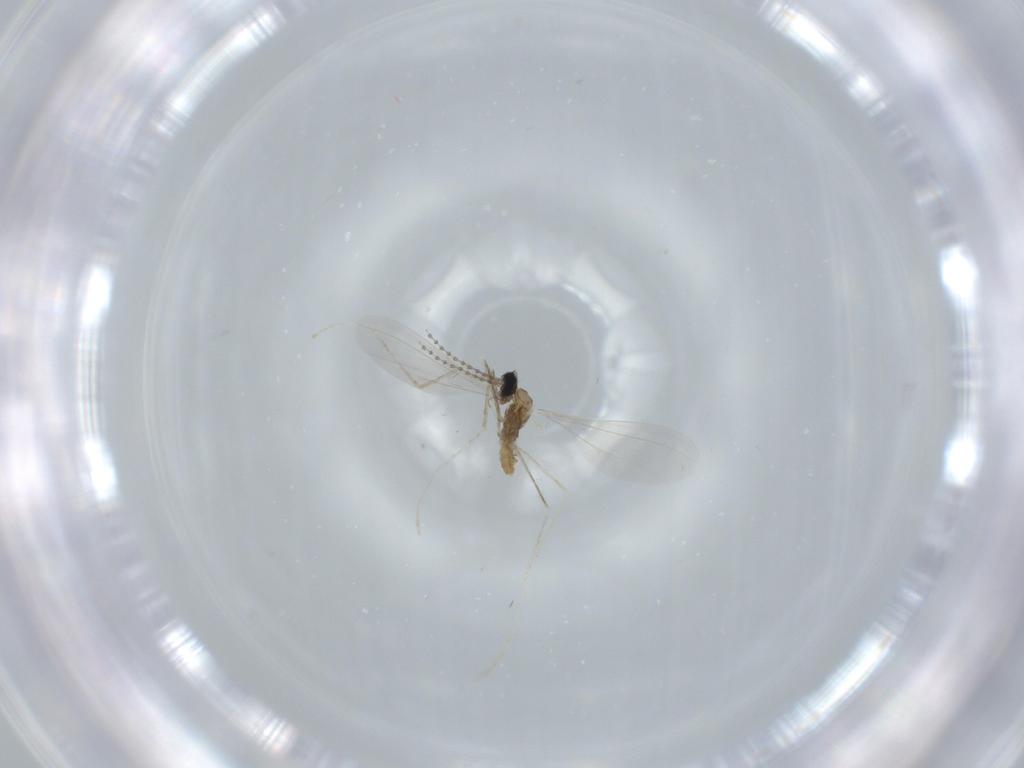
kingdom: Animalia
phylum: Arthropoda
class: Insecta
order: Diptera
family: Cecidomyiidae
